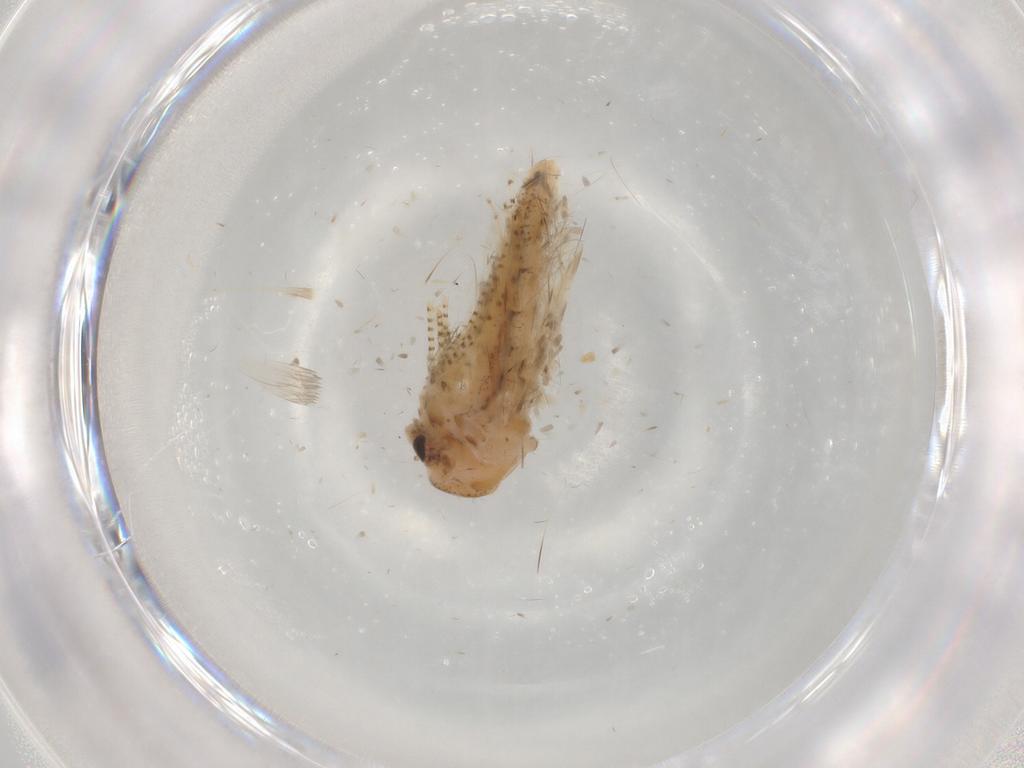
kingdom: Animalia
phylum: Arthropoda
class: Insecta
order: Diptera
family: Chaoboridae
